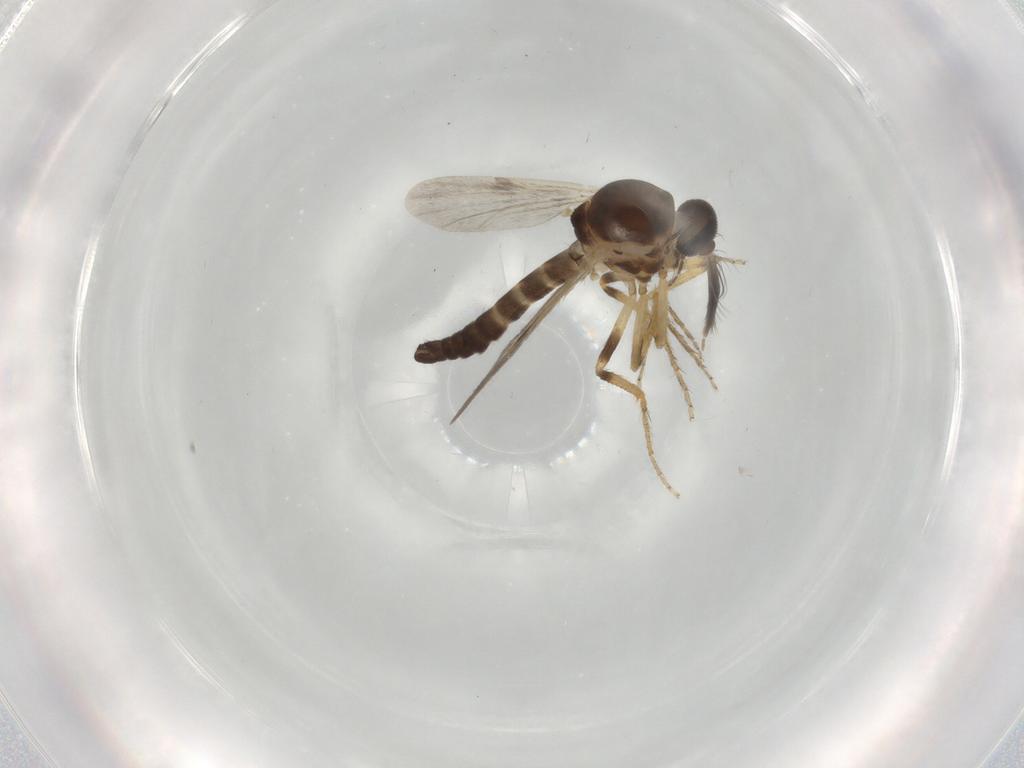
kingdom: Animalia
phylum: Arthropoda
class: Insecta
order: Diptera
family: Ceratopogonidae
